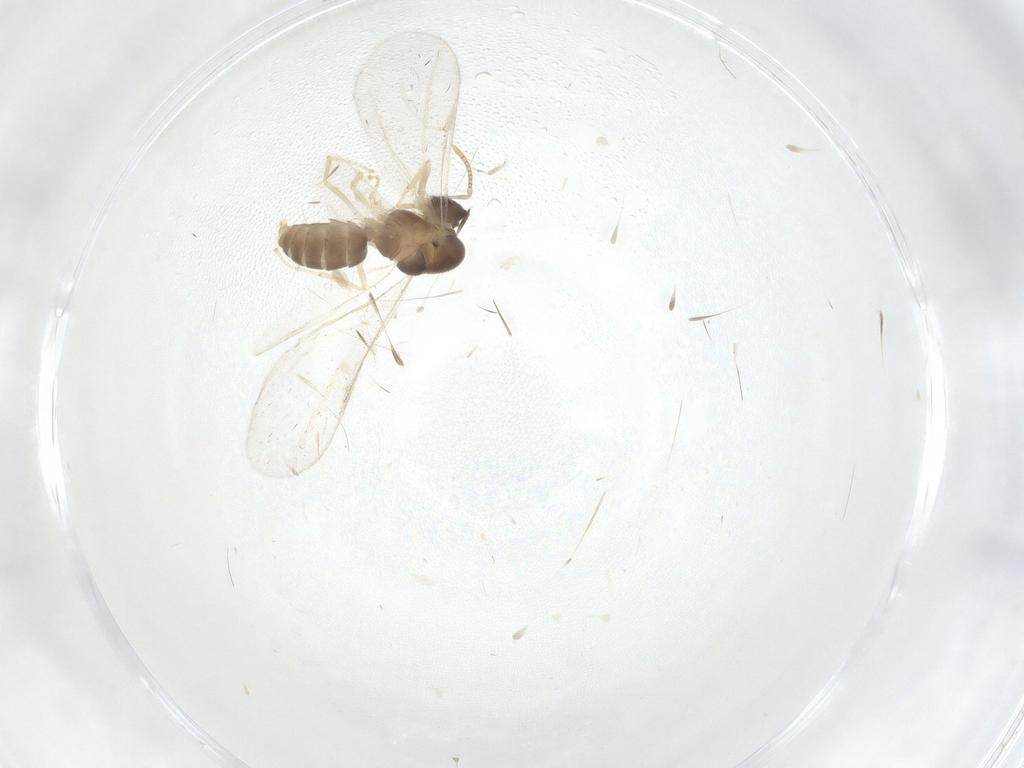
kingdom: Animalia
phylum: Arthropoda
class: Insecta
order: Hymenoptera
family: Formicidae
